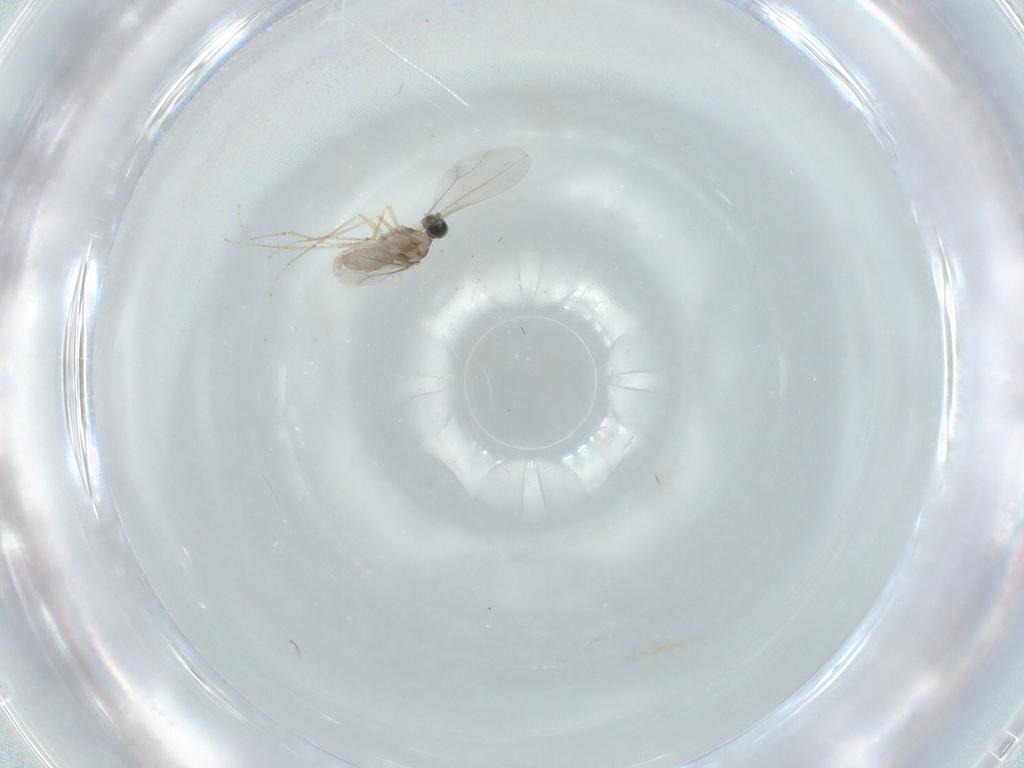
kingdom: Animalia
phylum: Arthropoda
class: Insecta
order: Diptera
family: Cecidomyiidae
